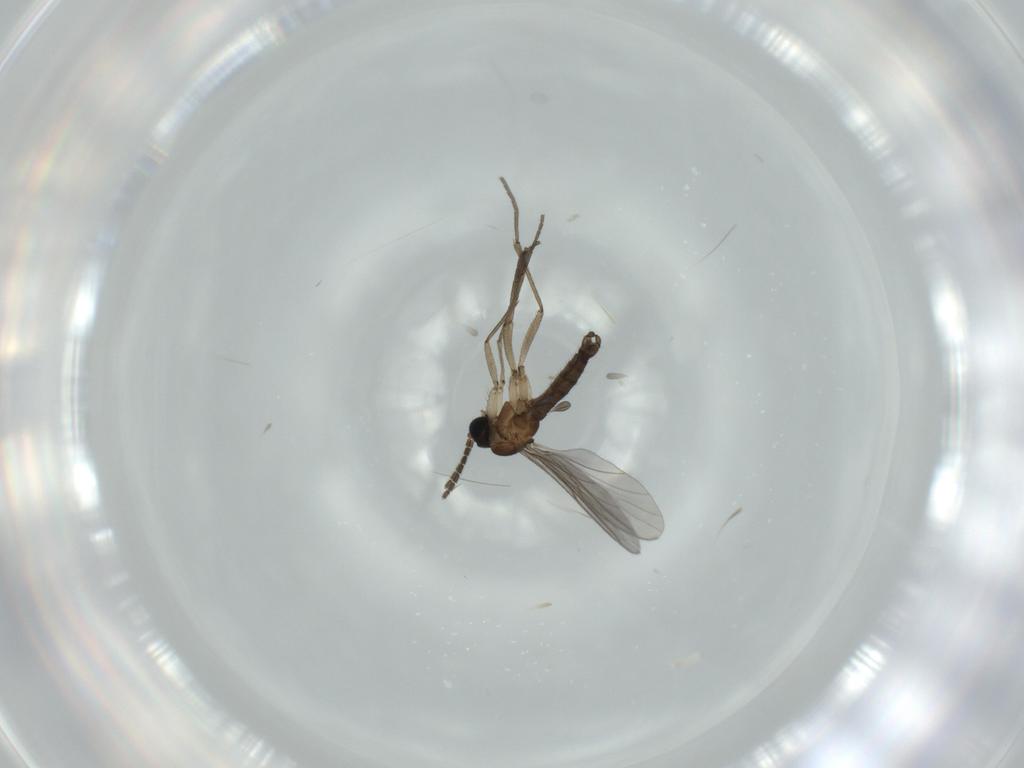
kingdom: Animalia
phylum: Arthropoda
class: Insecta
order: Diptera
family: Sciaridae
